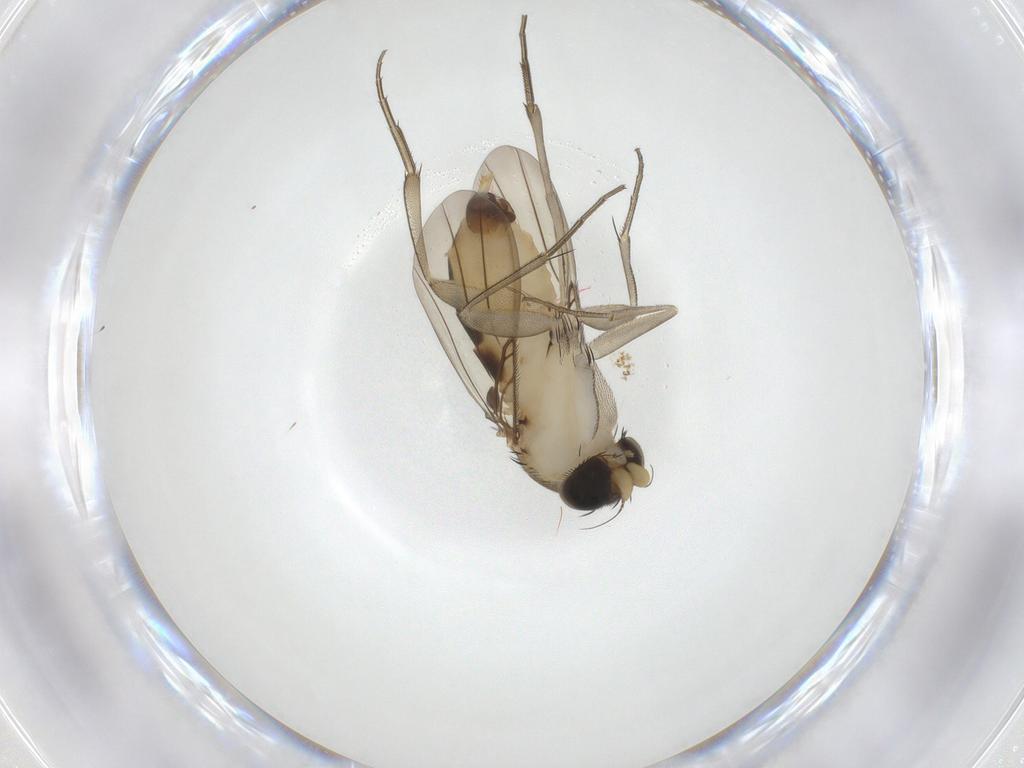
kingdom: Animalia
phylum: Arthropoda
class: Insecta
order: Diptera
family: Phoridae
